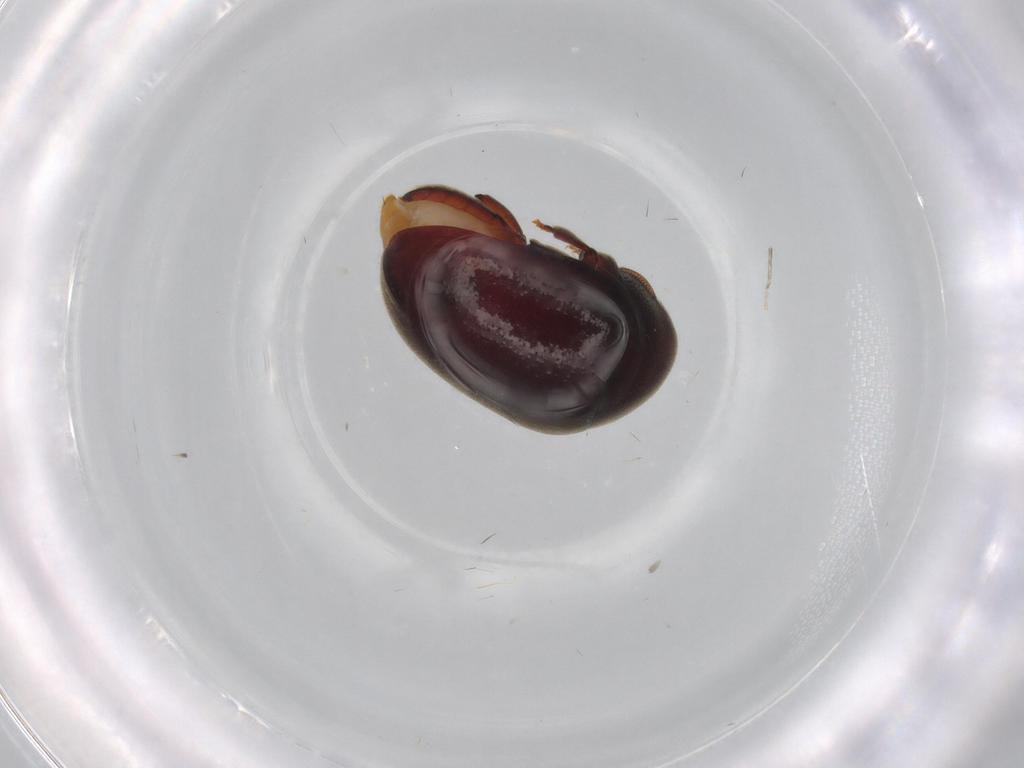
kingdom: Animalia
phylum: Arthropoda
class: Insecta
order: Coleoptera
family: Ptinidae
